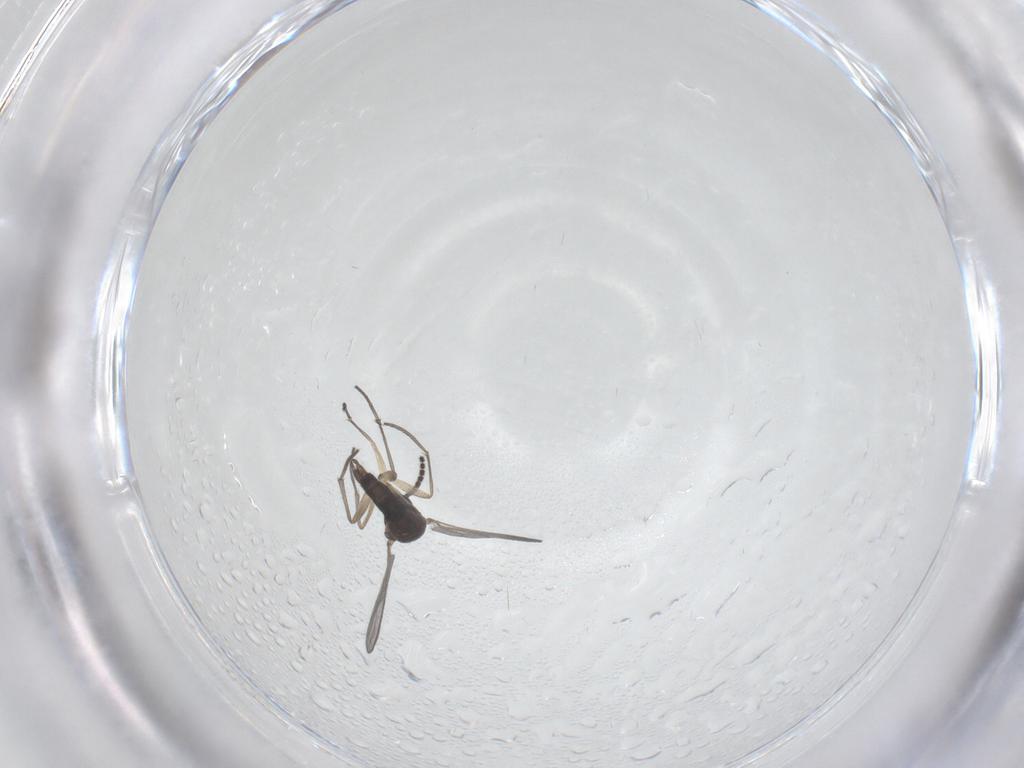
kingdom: Animalia
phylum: Arthropoda
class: Insecta
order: Diptera
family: Sciaridae
